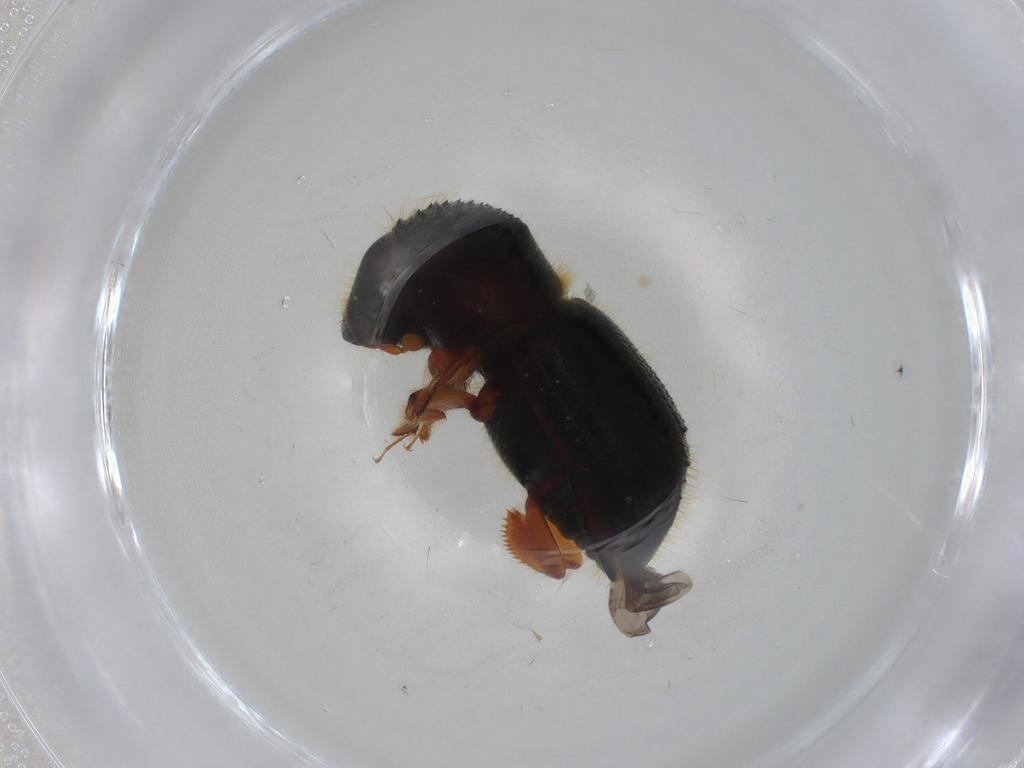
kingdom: Animalia
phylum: Arthropoda
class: Insecta
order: Coleoptera
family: Curculionidae
